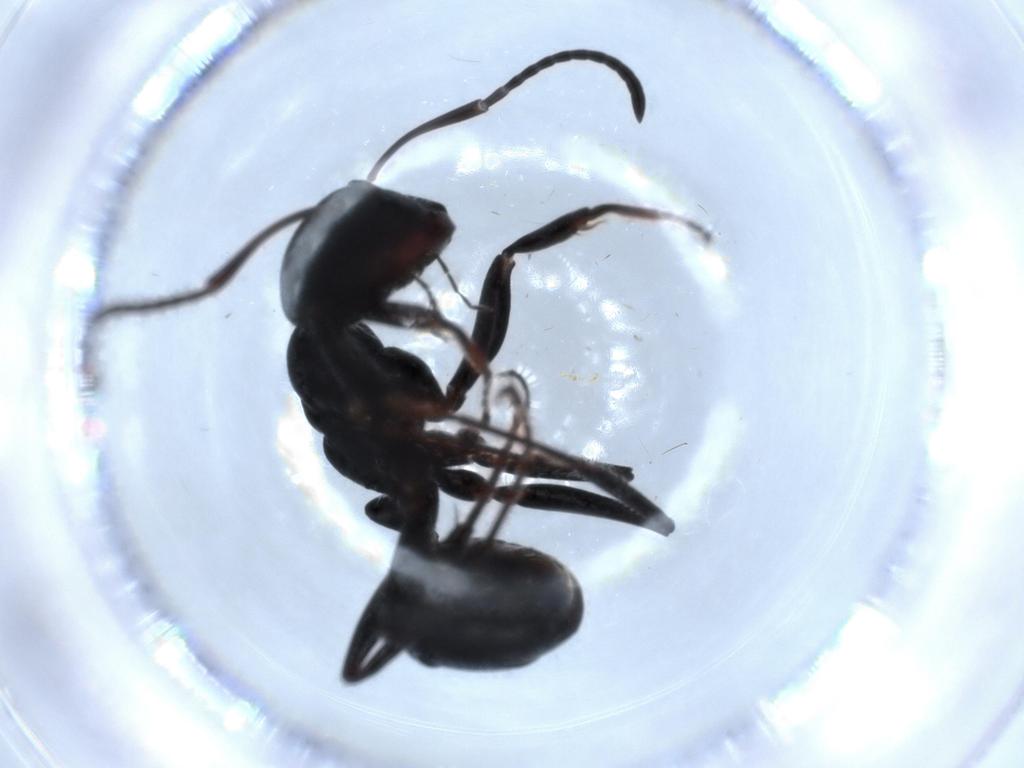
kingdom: Animalia
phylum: Arthropoda
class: Insecta
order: Hymenoptera
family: Formicidae
